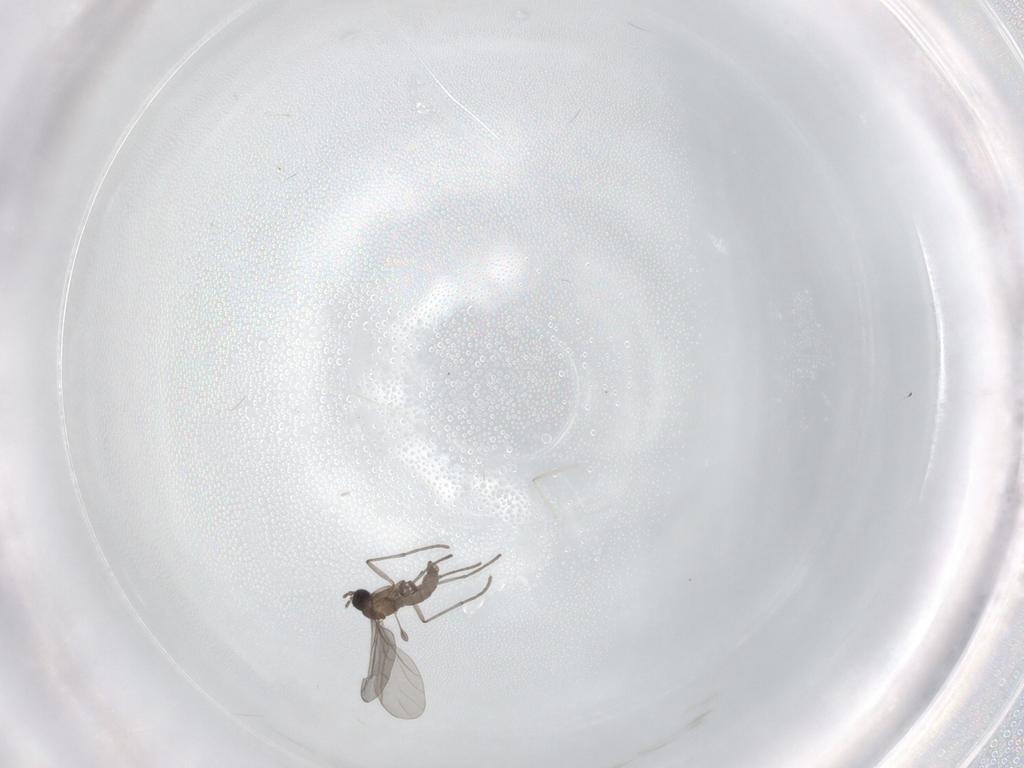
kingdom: Animalia
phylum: Arthropoda
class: Insecta
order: Diptera
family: Sciaridae
